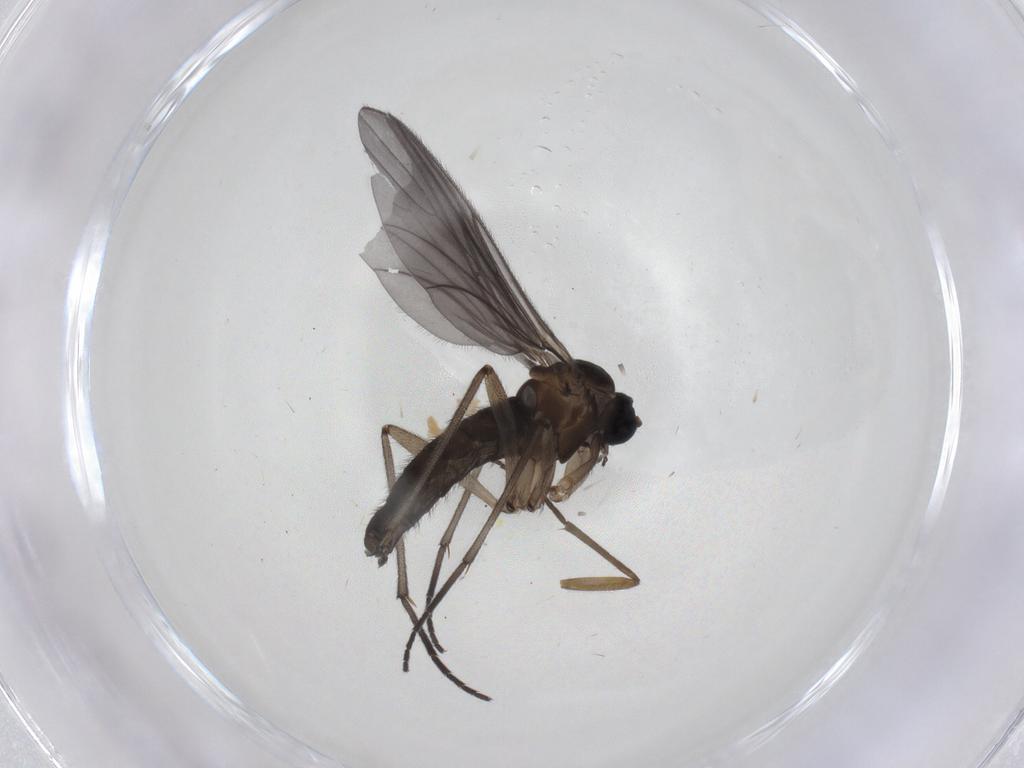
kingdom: Animalia
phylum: Arthropoda
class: Insecta
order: Diptera
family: Sciaridae
